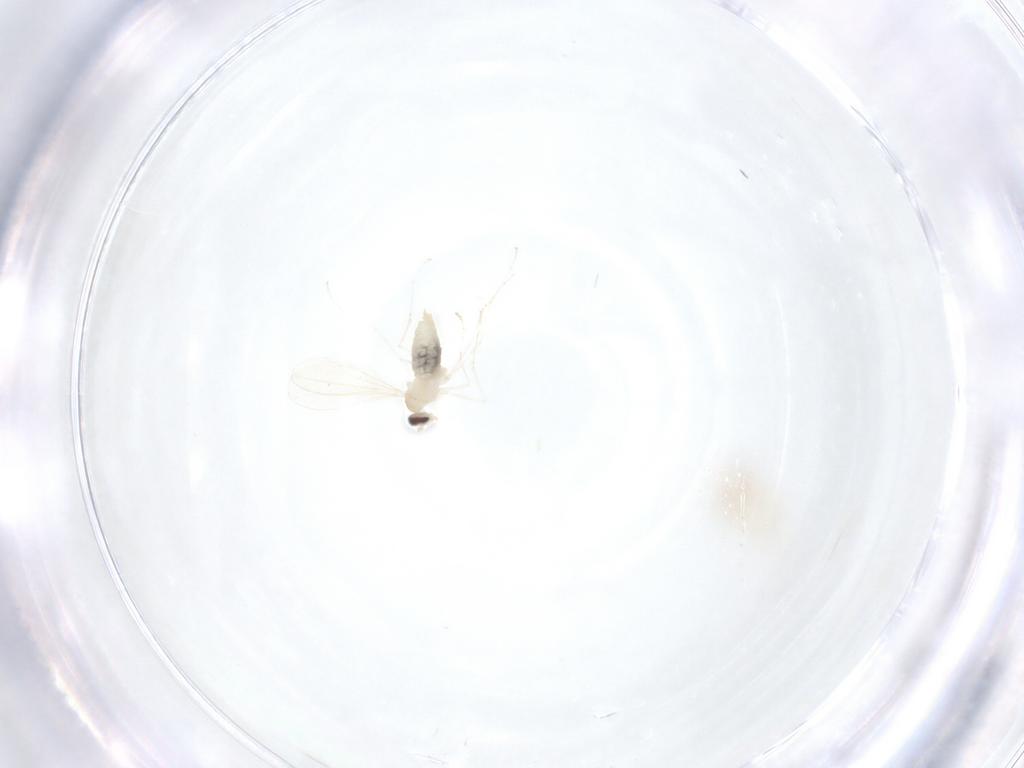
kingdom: Animalia
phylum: Arthropoda
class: Insecta
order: Diptera
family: Cecidomyiidae
